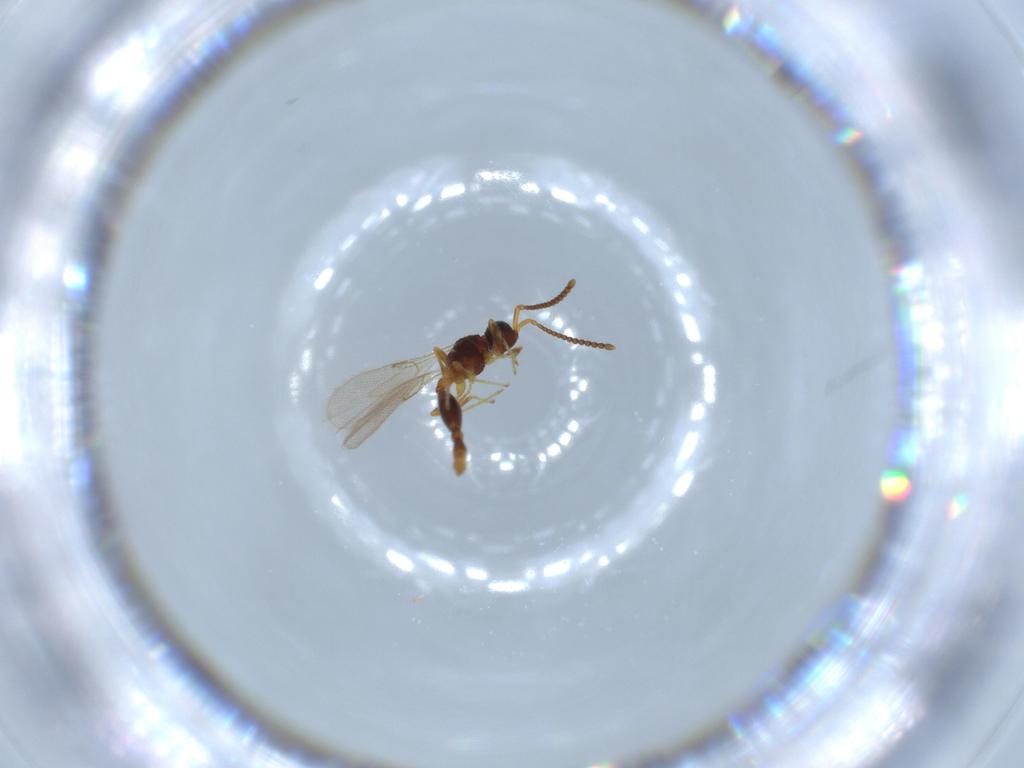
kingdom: Animalia
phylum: Arthropoda
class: Insecta
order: Hymenoptera
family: Diapriidae
